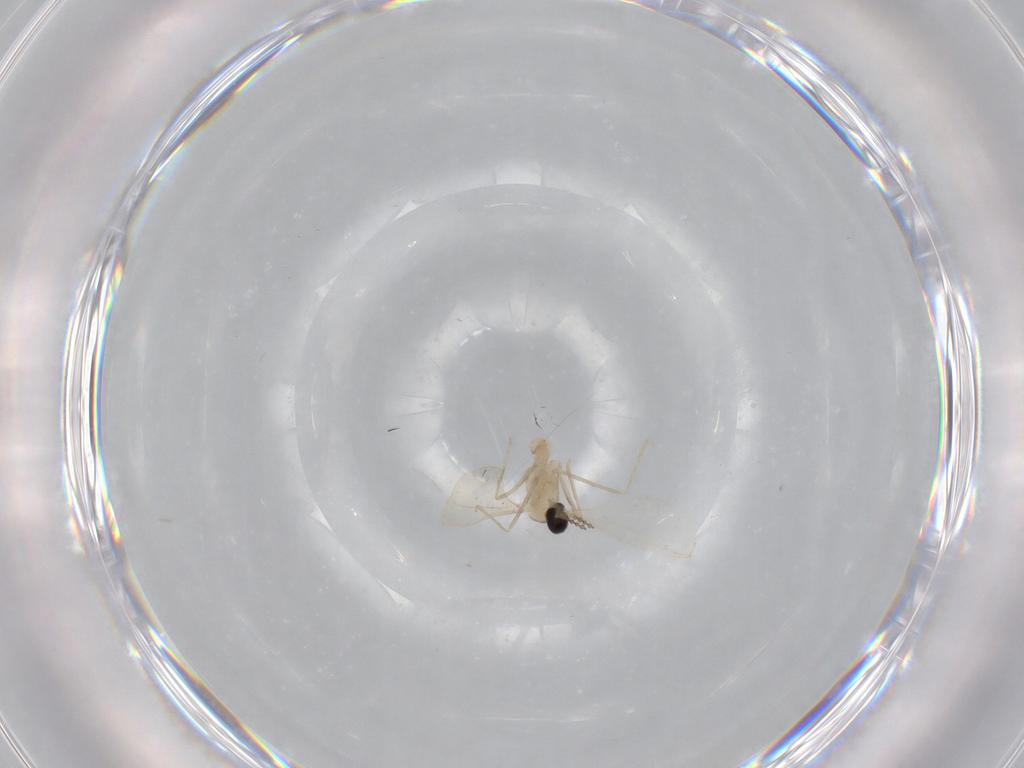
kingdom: Animalia
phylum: Arthropoda
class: Insecta
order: Diptera
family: Cecidomyiidae
